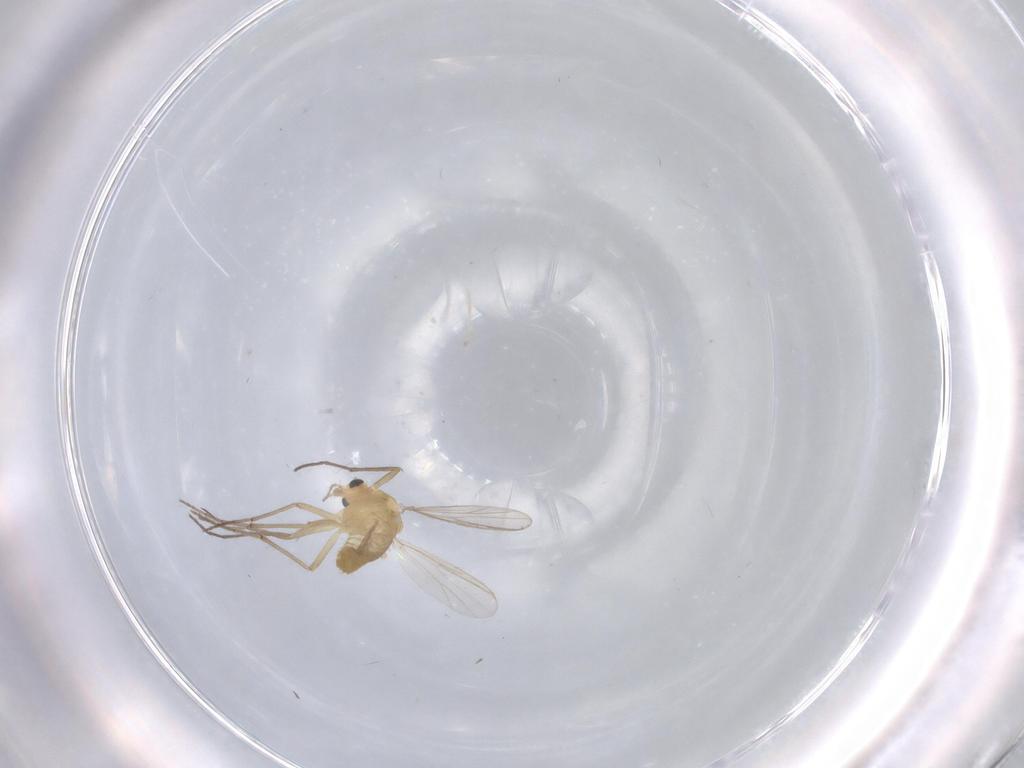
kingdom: Animalia
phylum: Arthropoda
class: Insecta
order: Diptera
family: Chironomidae
